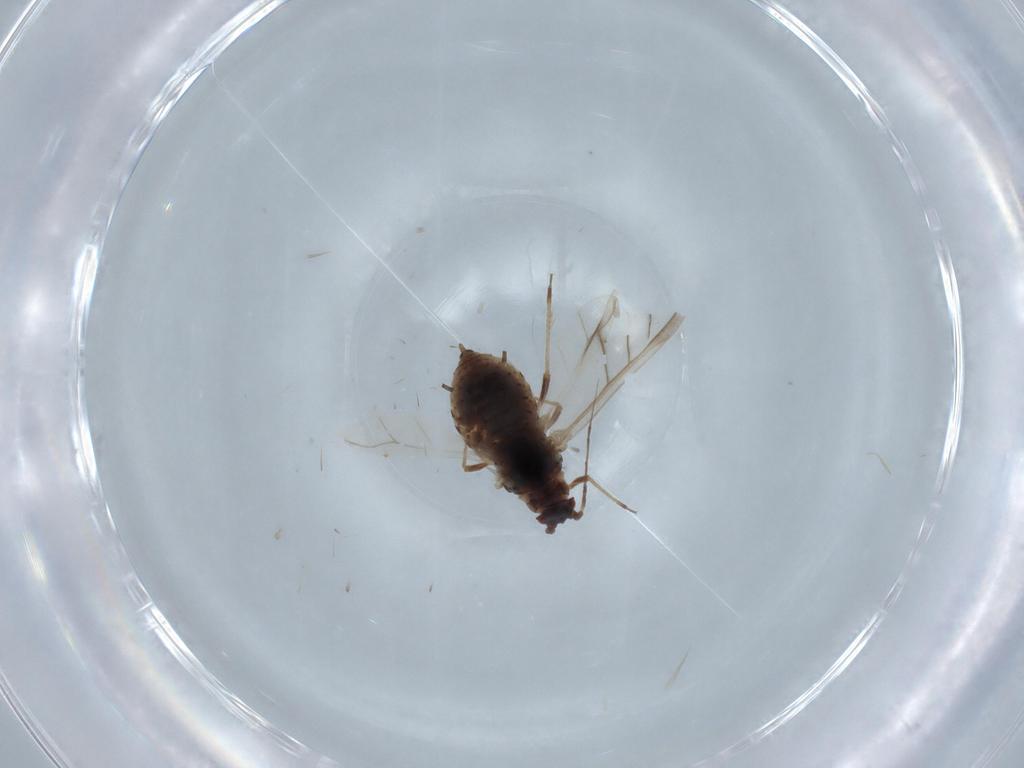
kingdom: Animalia
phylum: Arthropoda
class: Insecta
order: Hemiptera
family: Aphididae
